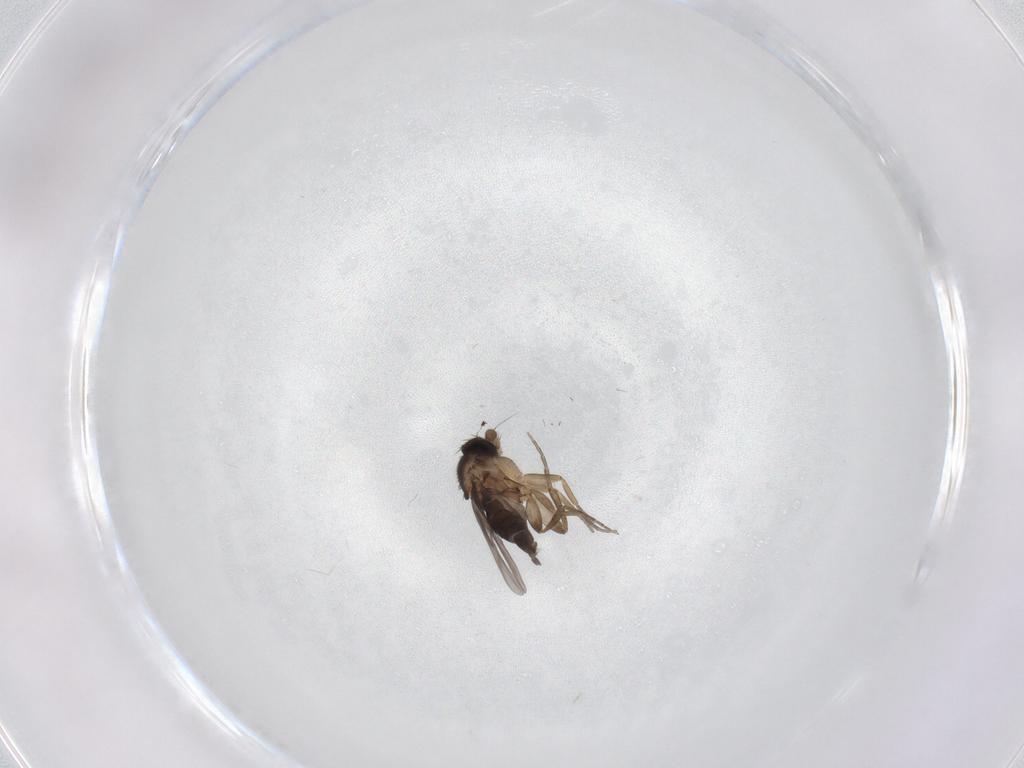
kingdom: Animalia
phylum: Arthropoda
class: Insecta
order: Diptera
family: Phoridae
